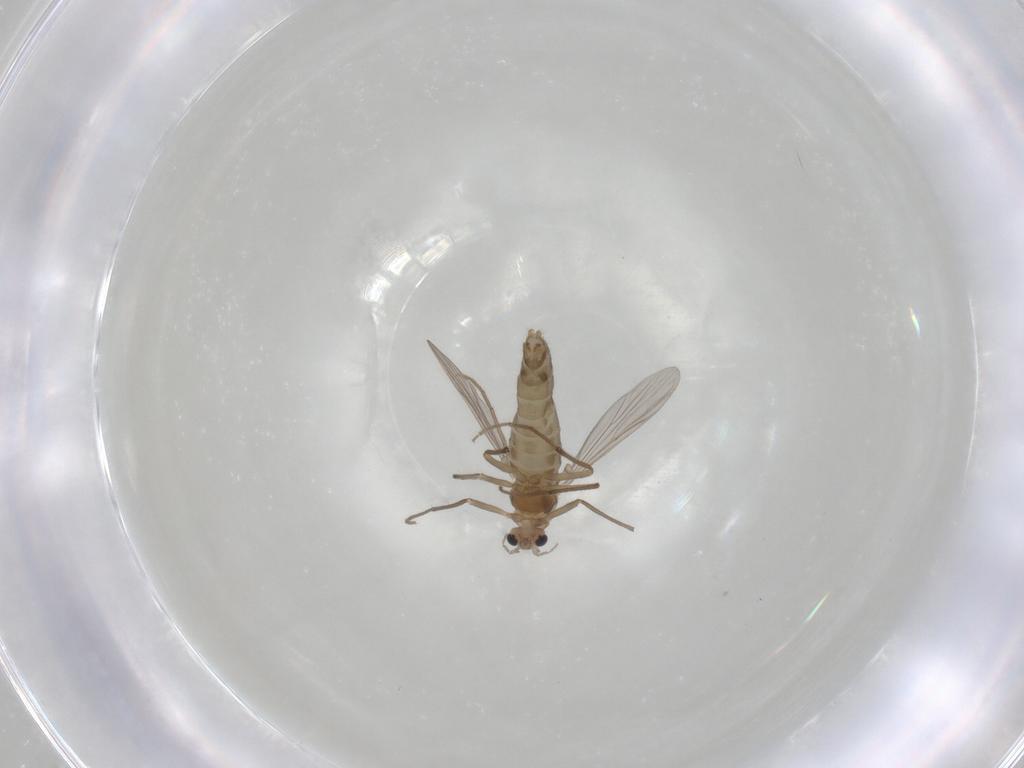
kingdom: Animalia
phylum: Arthropoda
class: Insecta
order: Diptera
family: Chironomidae
